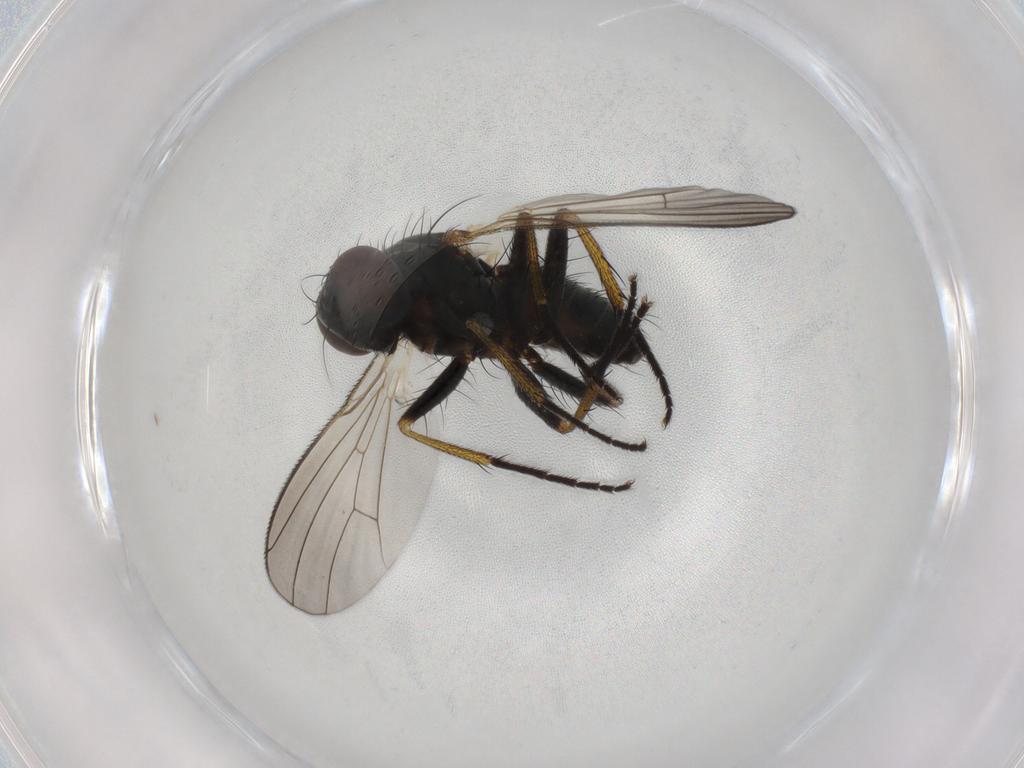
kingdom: Animalia
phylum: Arthropoda
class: Insecta
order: Diptera
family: Muscidae
